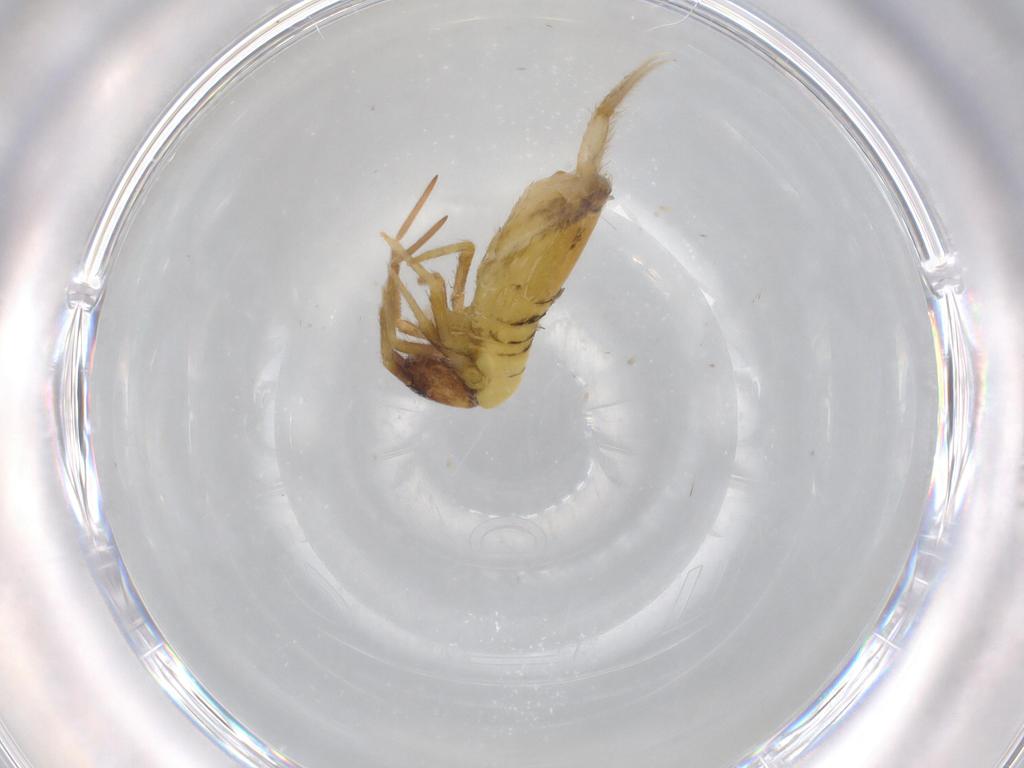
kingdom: Animalia
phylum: Arthropoda
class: Collembola
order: Entomobryomorpha
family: Entomobryidae
